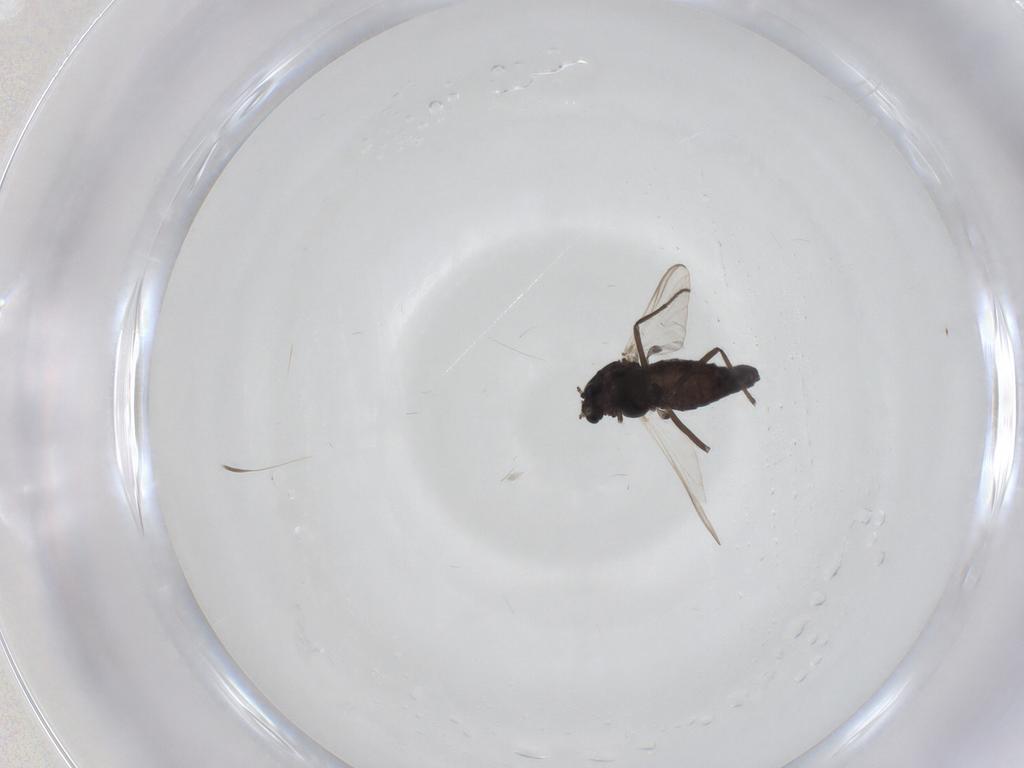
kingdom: Animalia
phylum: Arthropoda
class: Insecta
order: Diptera
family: Chironomidae
